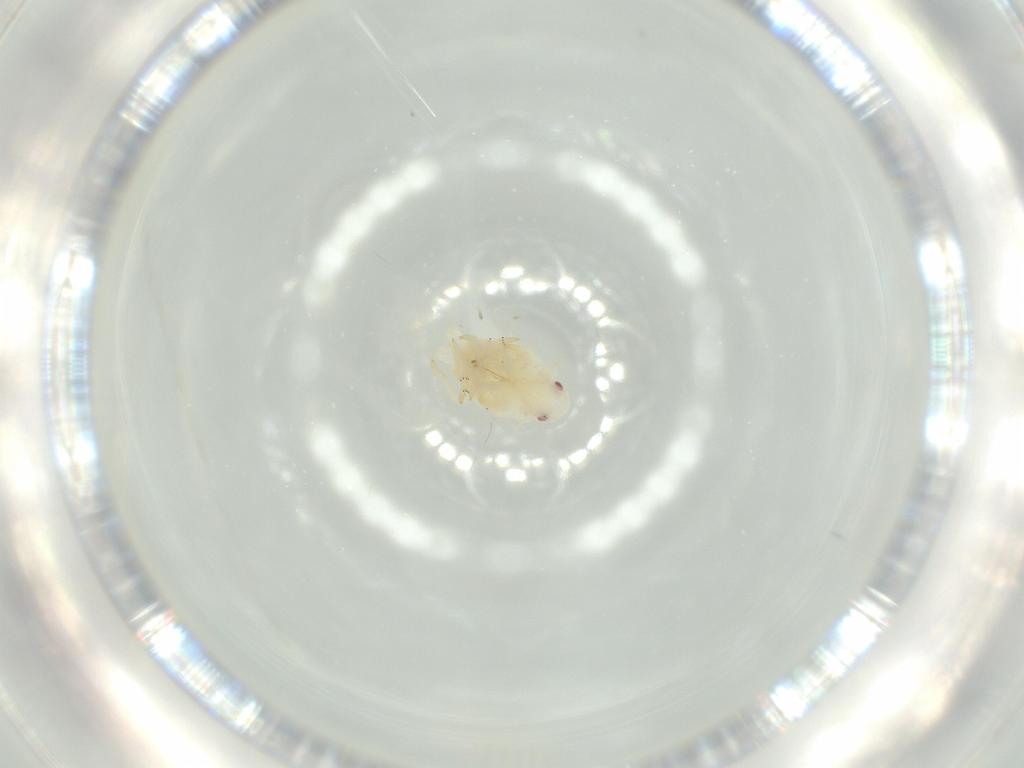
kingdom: Animalia
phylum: Arthropoda
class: Insecta
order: Hemiptera
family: Flatidae
